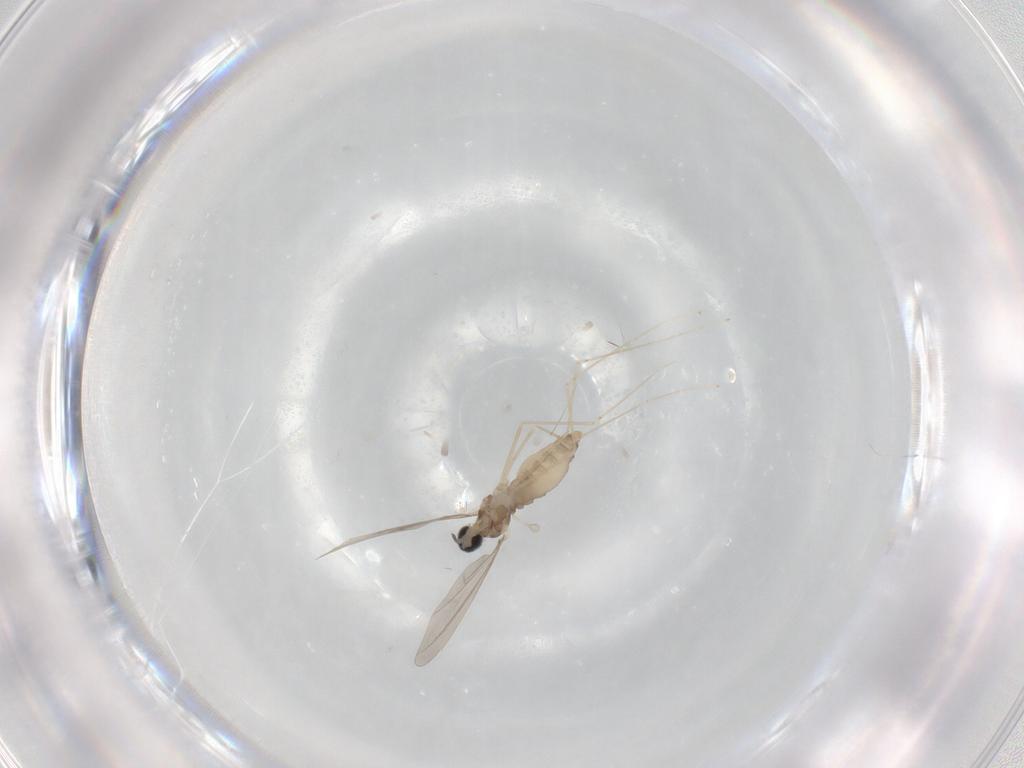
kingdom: Animalia
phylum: Arthropoda
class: Insecta
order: Diptera
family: Cecidomyiidae
